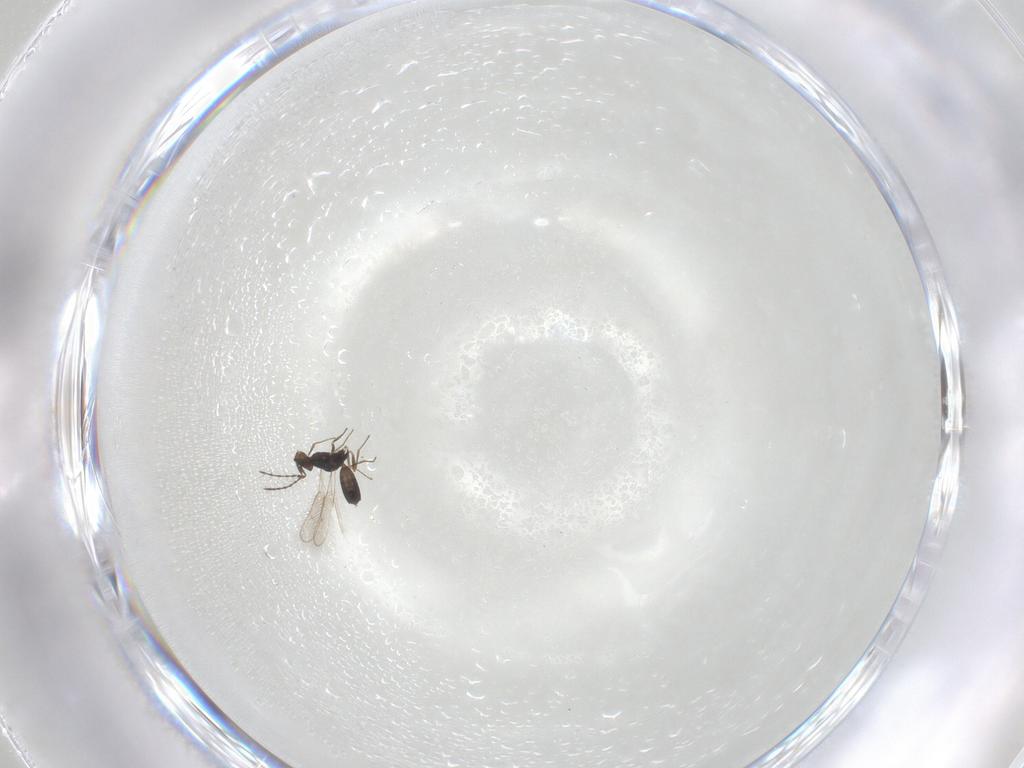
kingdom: Animalia
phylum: Arthropoda
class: Insecta
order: Hymenoptera
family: Pteromalidae
